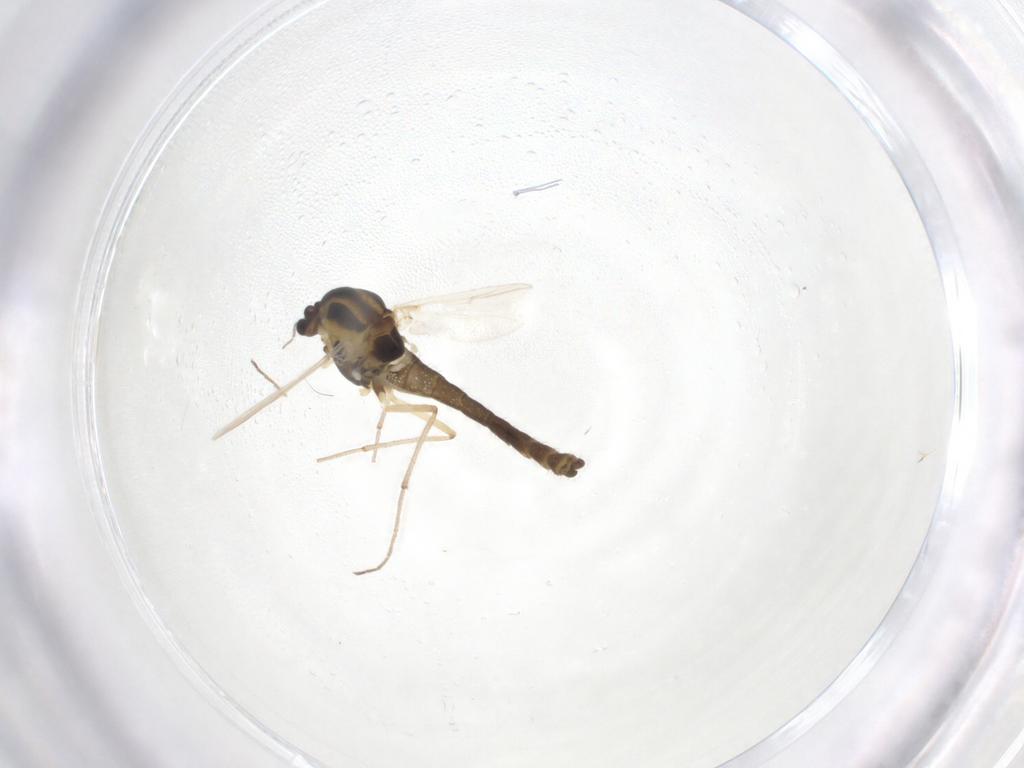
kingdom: Animalia
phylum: Arthropoda
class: Insecta
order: Diptera
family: Chironomidae
